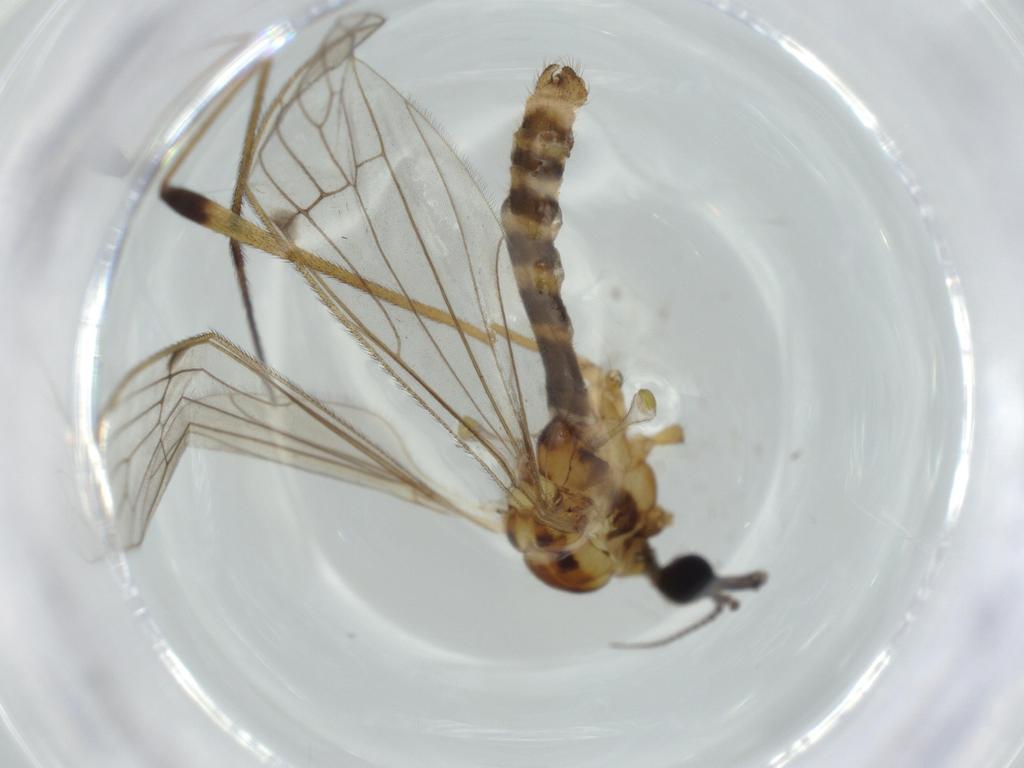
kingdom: Animalia
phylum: Arthropoda
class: Insecta
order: Diptera
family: Limoniidae
